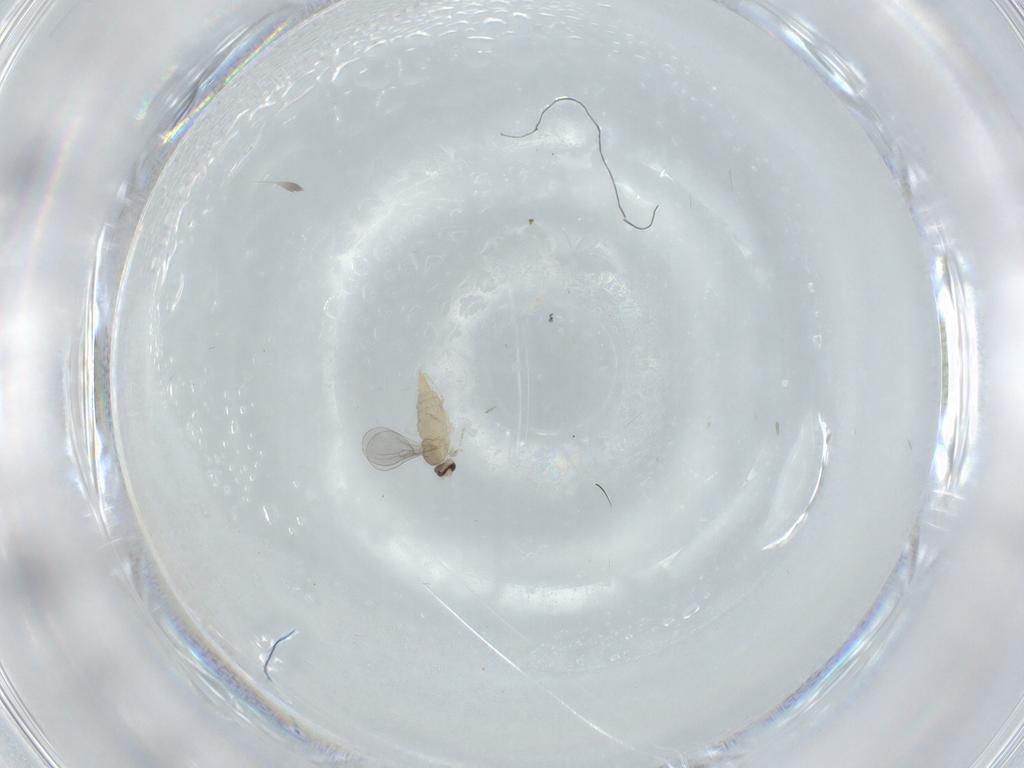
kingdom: Animalia
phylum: Arthropoda
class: Insecta
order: Diptera
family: Cecidomyiidae
